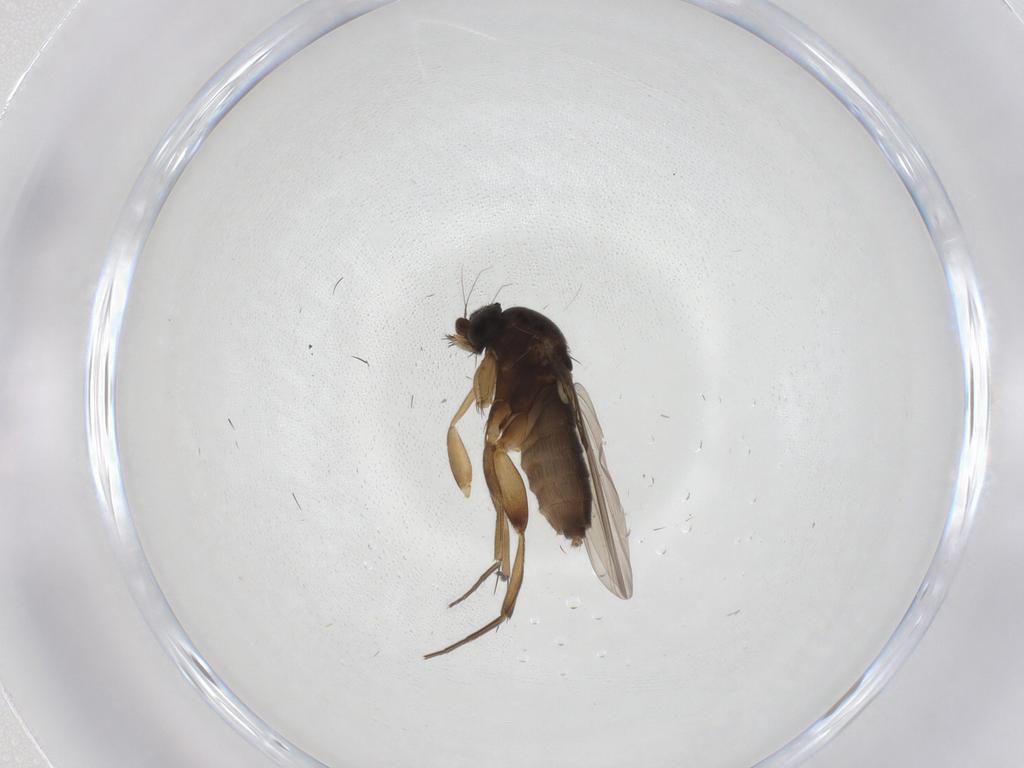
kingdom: Animalia
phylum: Arthropoda
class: Insecta
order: Diptera
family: Phoridae
